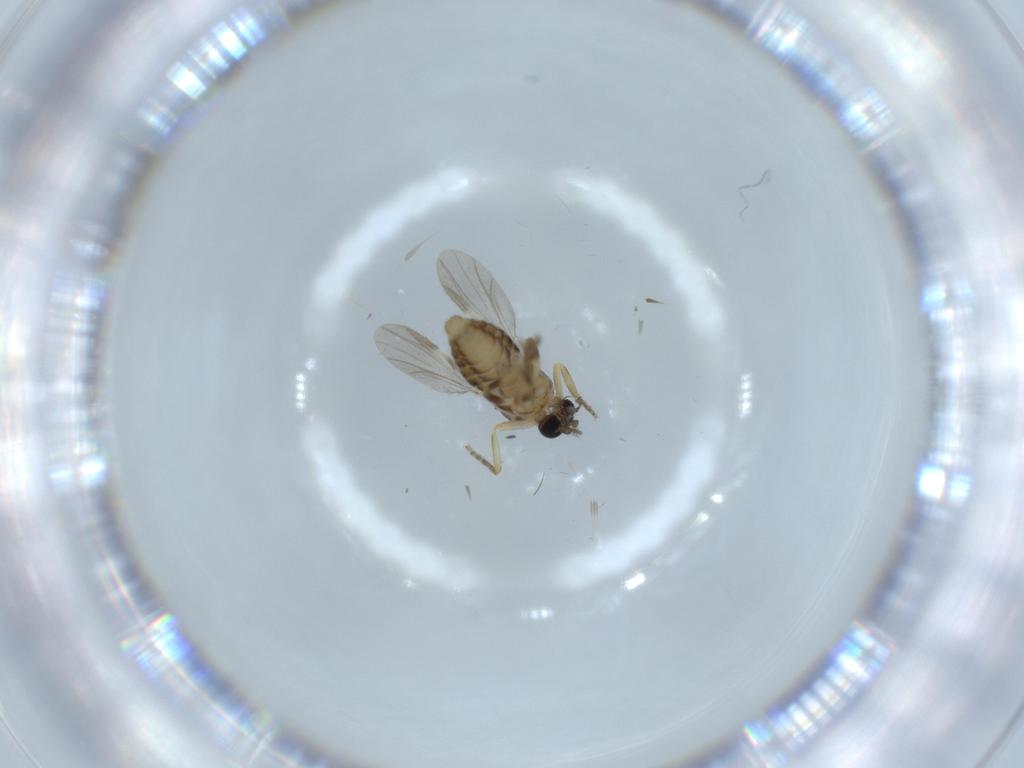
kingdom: Animalia
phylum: Arthropoda
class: Insecta
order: Diptera
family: Ceratopogonidae
